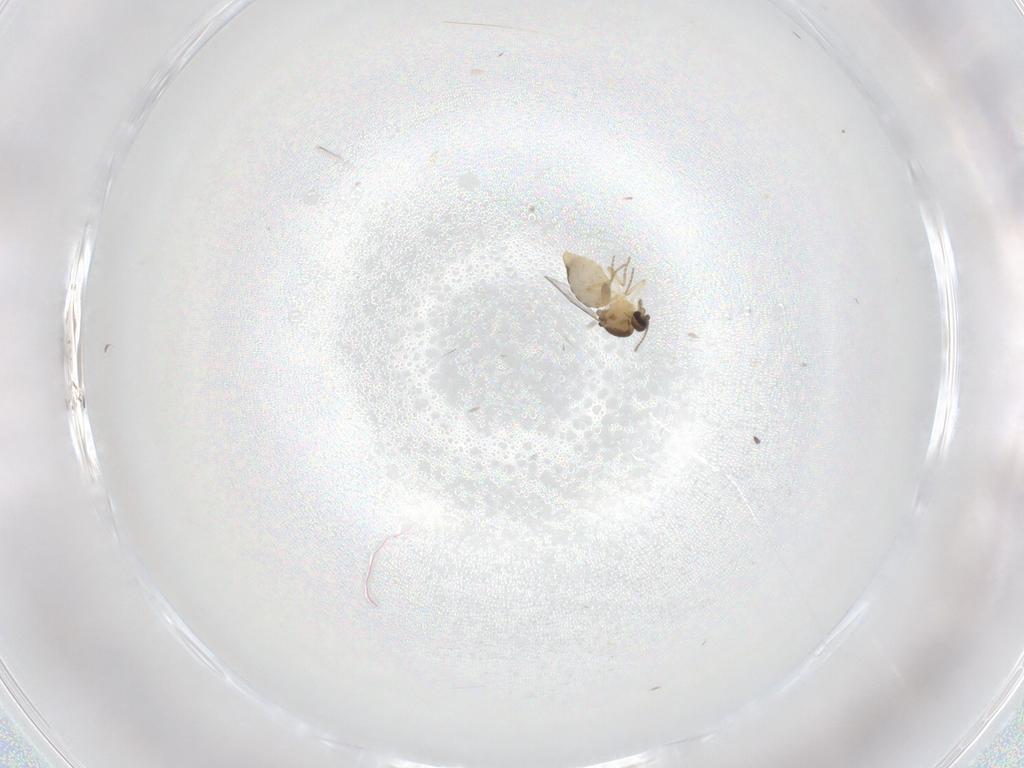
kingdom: Animalia
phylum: Arthropoda
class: Insecta
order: Diptera
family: Ceratopogonidae
